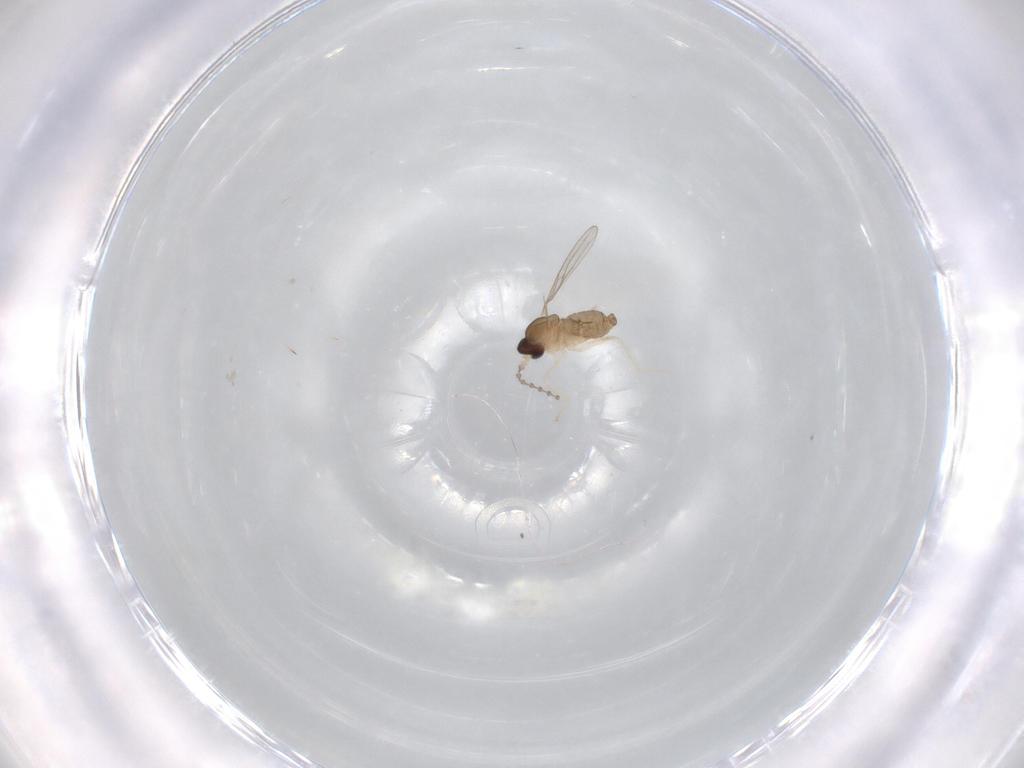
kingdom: Animalia
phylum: Arthropoda
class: Insecta
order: Diptera
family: Cecidomyiidae
